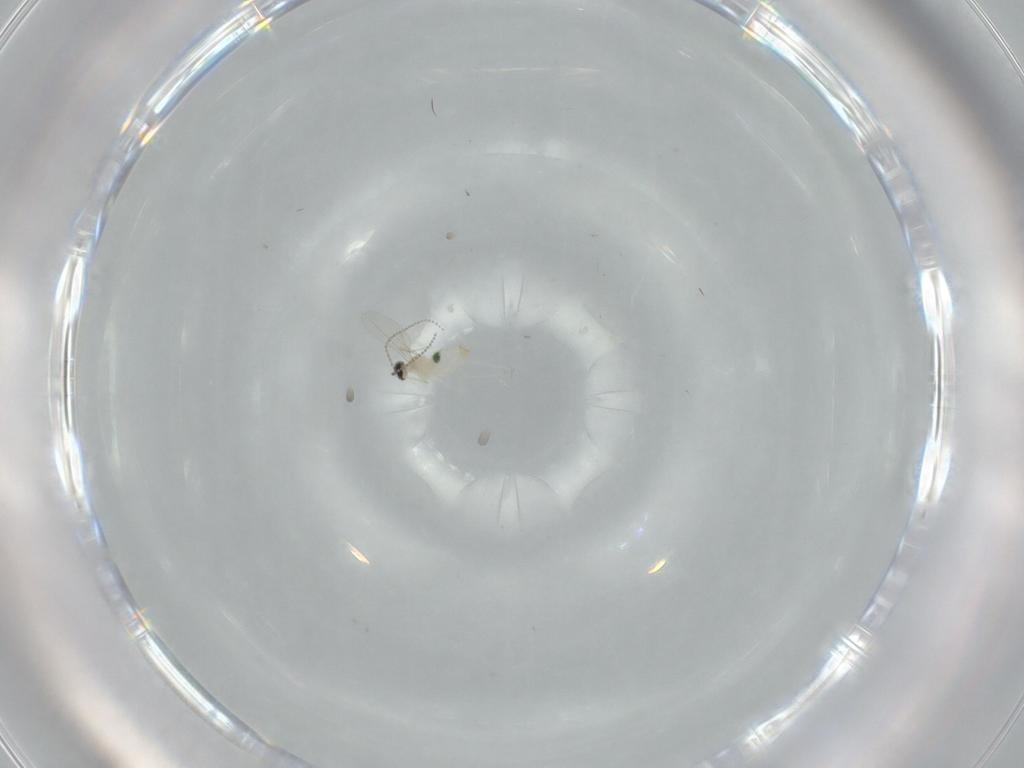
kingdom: Animalia
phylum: Arthropoda
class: Insecta
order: Diptera
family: Cecidomyiidae
